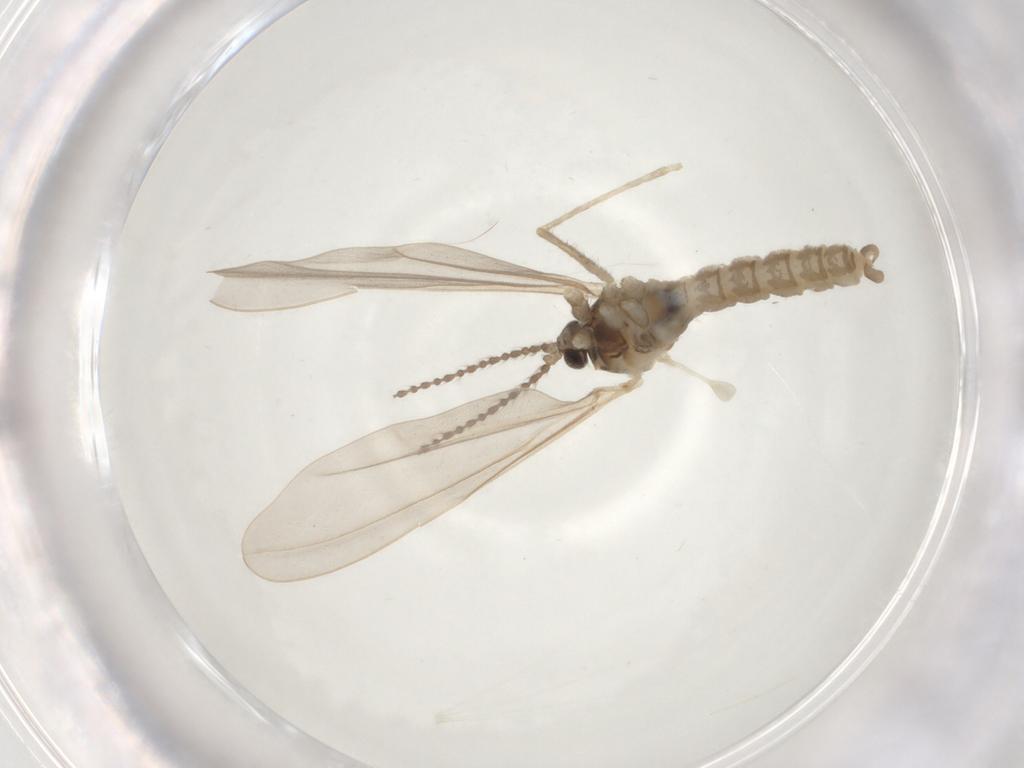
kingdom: Animalia
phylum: Arthropoda
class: Insecta
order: Diptera
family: Cecidomyiidae
